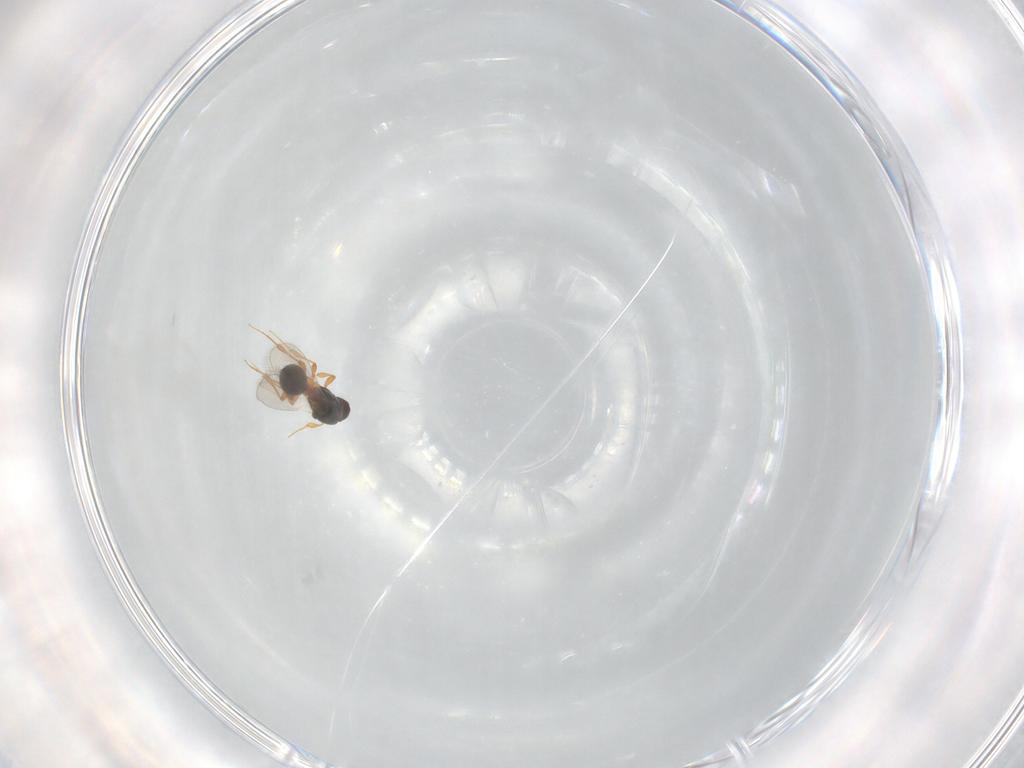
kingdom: Animalia
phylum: Arthropoda
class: Insecta
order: Hymenoptera
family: Platygastridae
